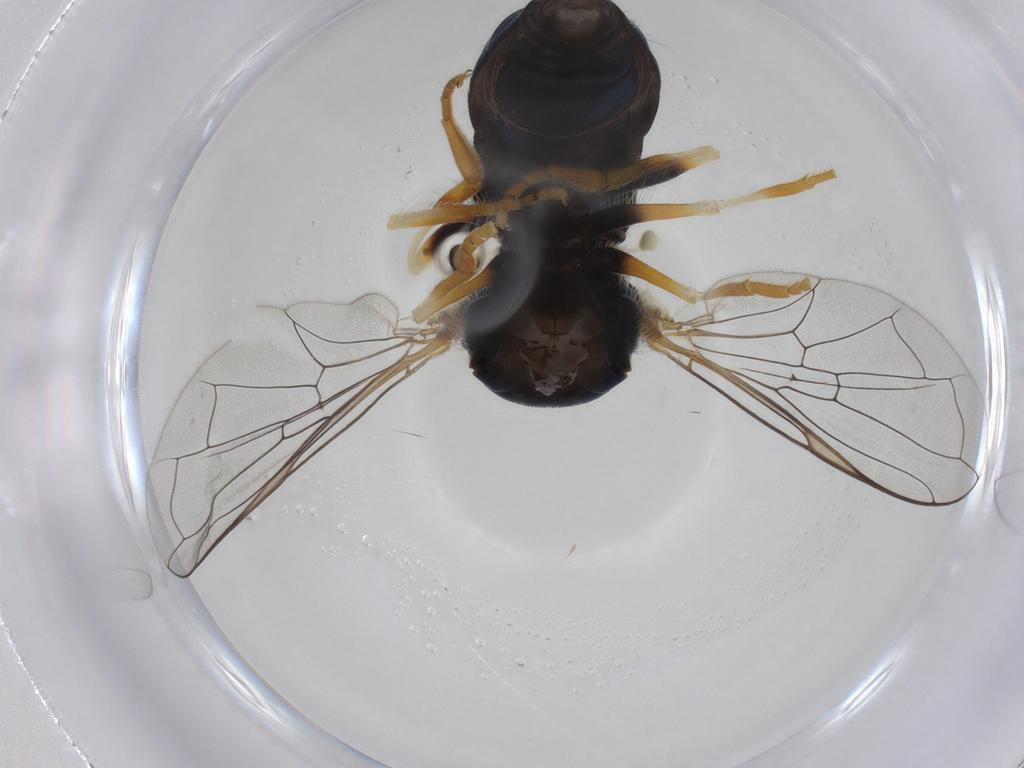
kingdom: Animalia
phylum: Arthropoda
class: Insecta
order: Diptera
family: Syrphidae
